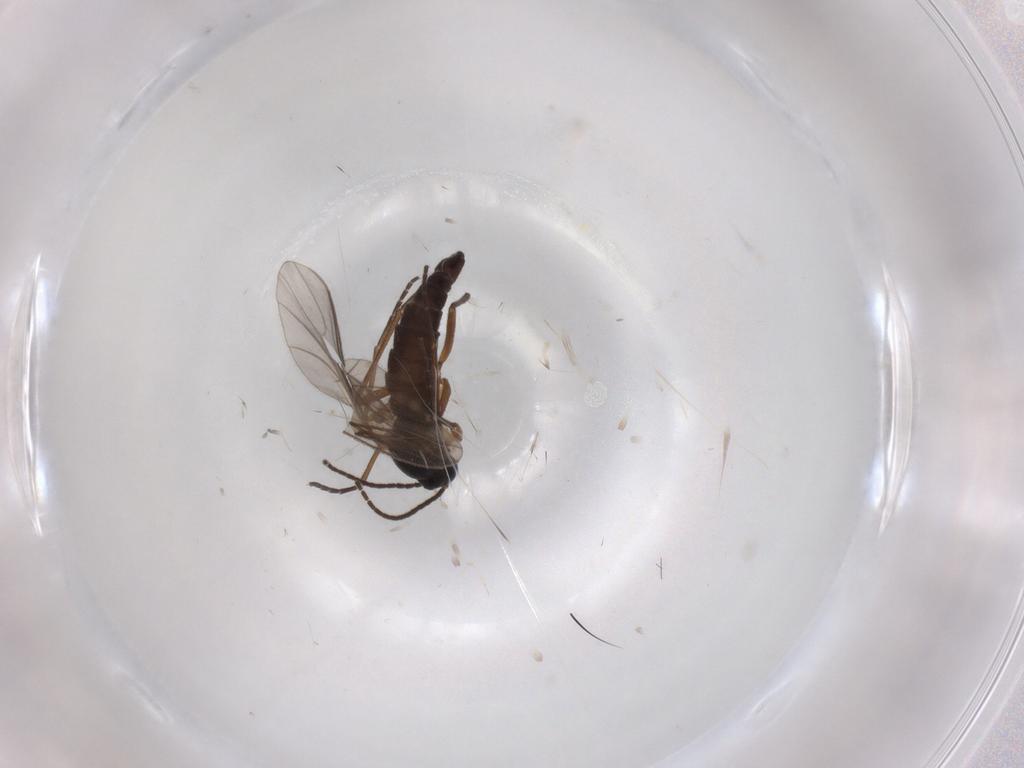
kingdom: Animalia
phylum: Arthropoda
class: Insecta
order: Diptera
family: Sciaridae
